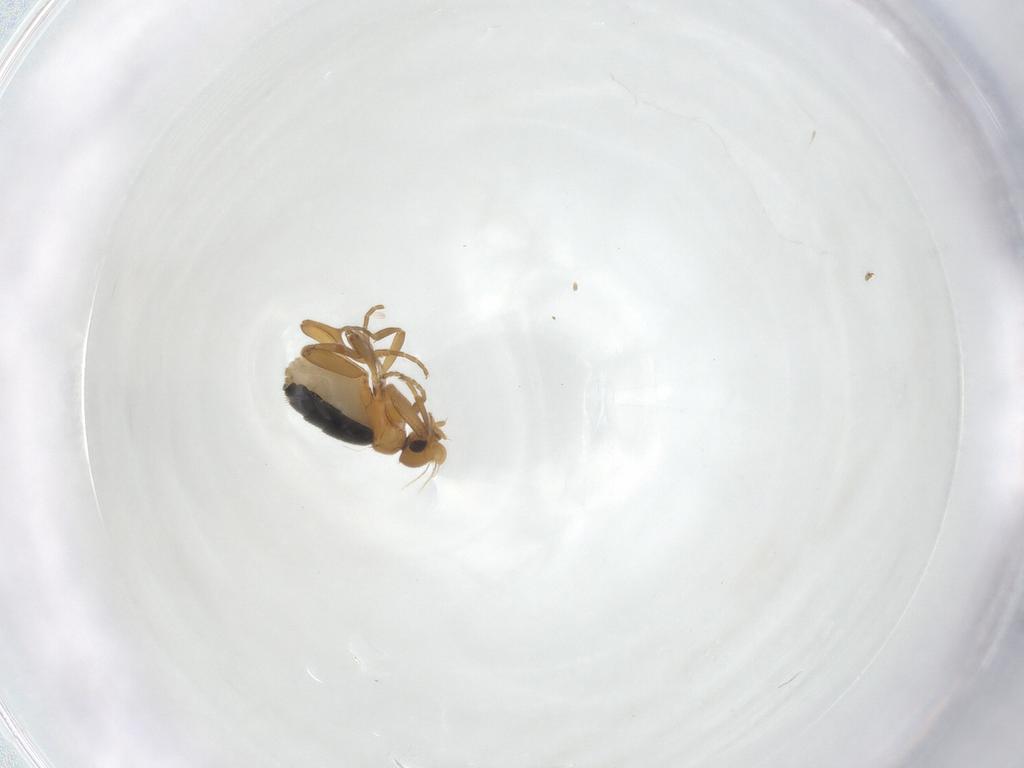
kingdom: Animalia
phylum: Arthropoda
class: Insecta
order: Diptera
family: Phoridae
